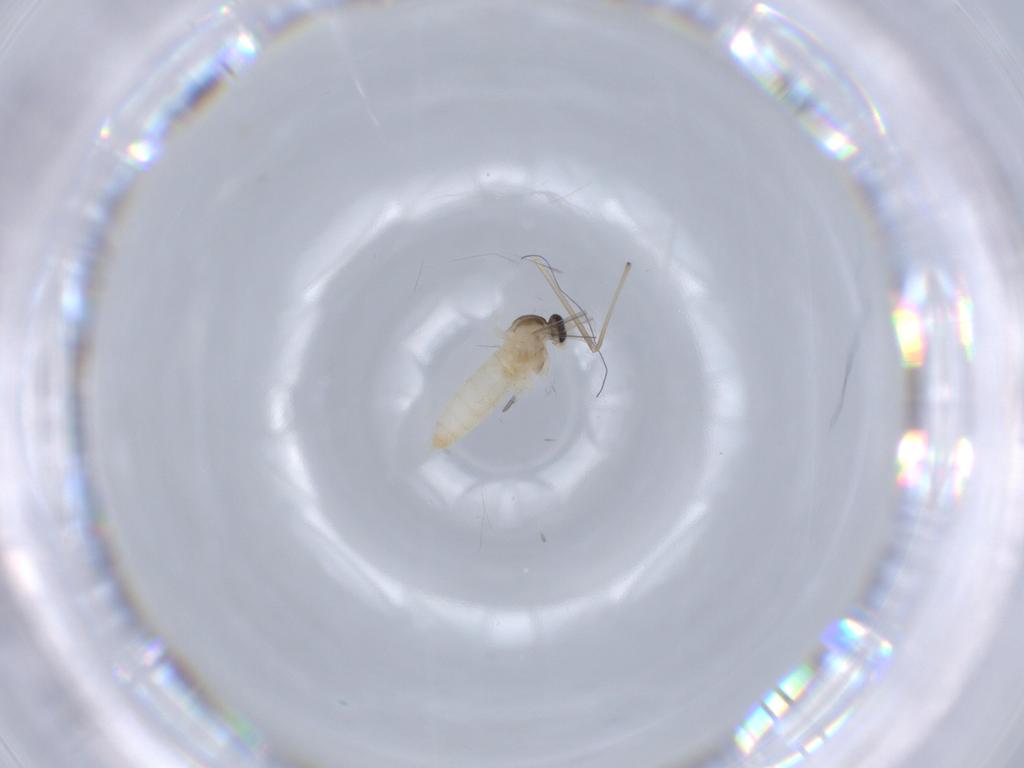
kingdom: Animalia
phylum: Arthropoda
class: Insecta
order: Diptera
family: Cecidomyiidae
